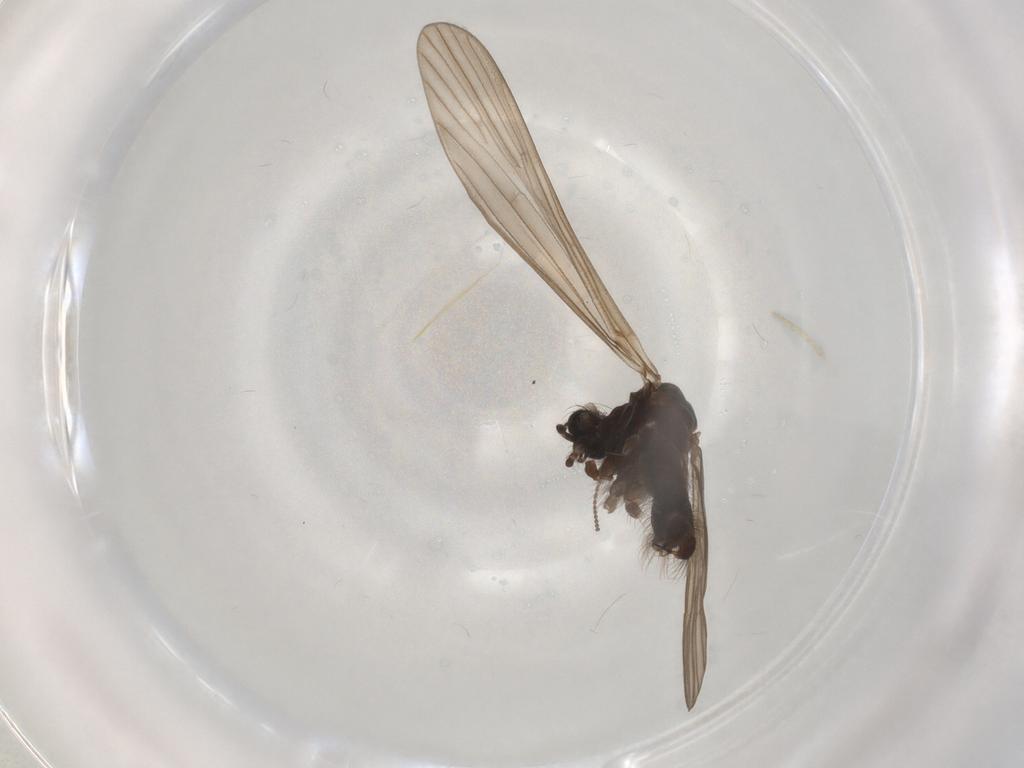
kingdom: Animalia
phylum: Arthropoda
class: Insecta
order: Diptera
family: Limoniidae
